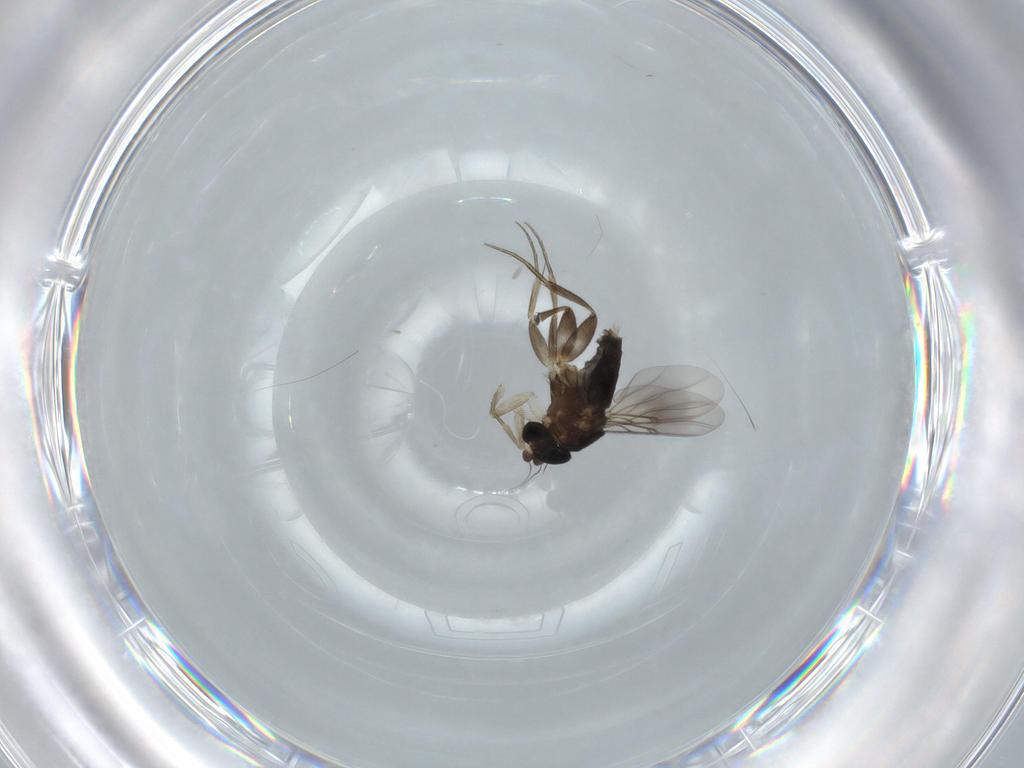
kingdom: Animalia
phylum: Arthropoda
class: Insecta
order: Diptera
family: Phoridae
